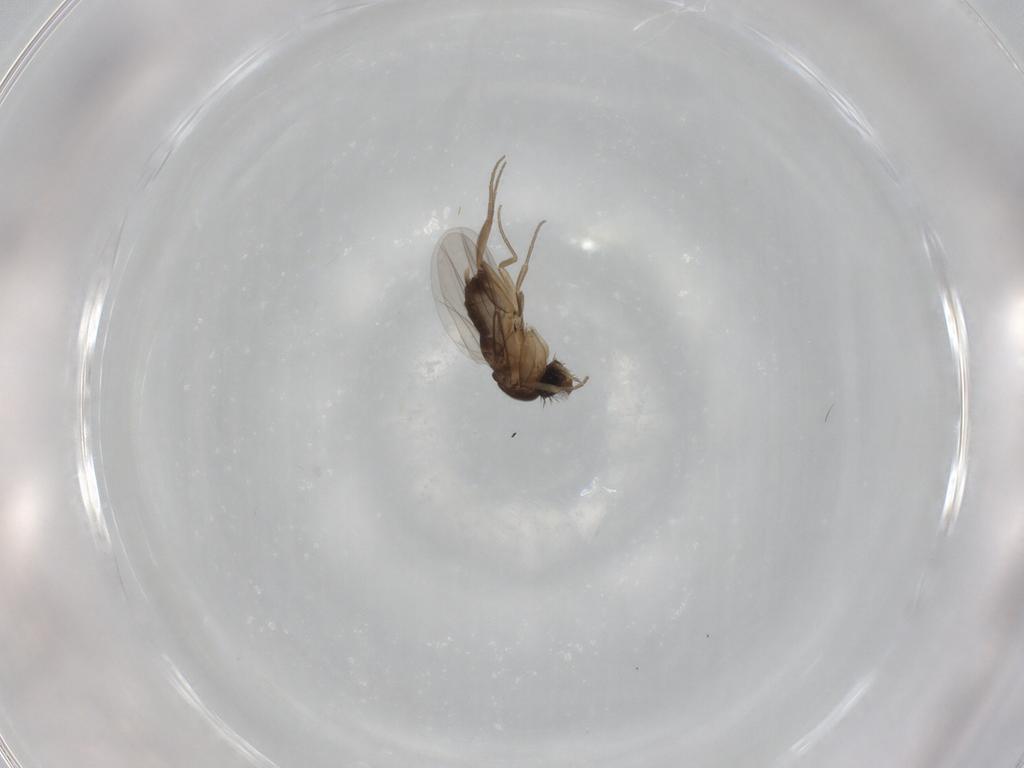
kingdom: Animalia
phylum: Arthropoda
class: Insecta
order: Diptera
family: Phoridae
